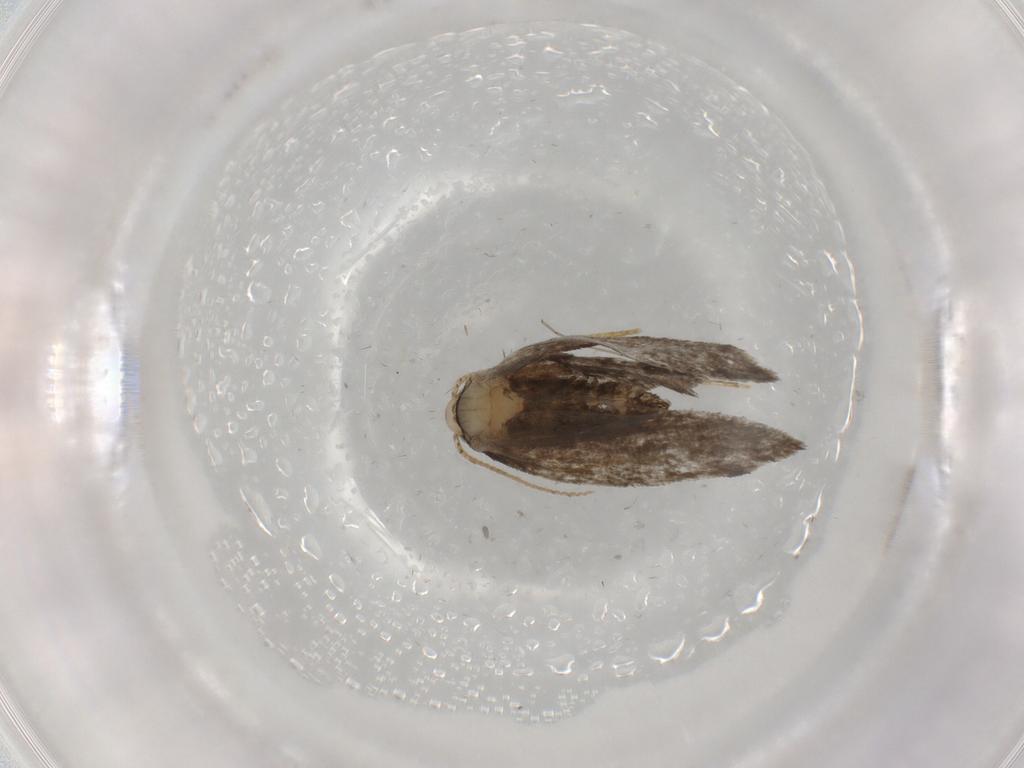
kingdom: Animalia
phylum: Arthropoda
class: Insecta
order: Lepidoptera
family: Psychidae
